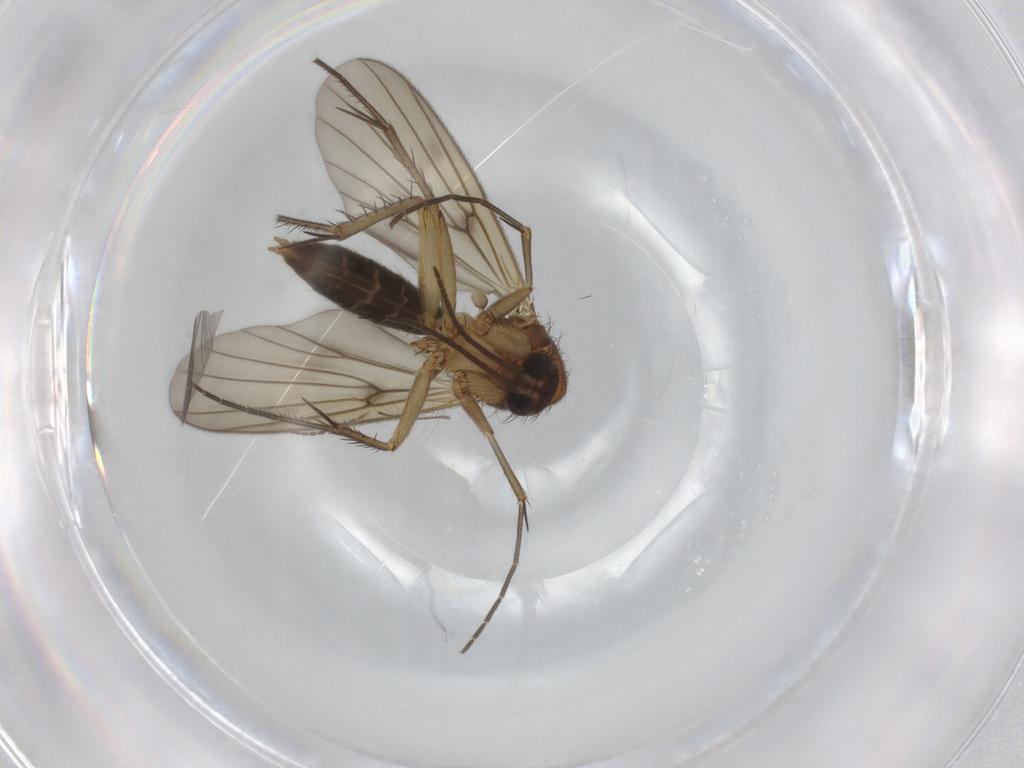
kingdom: Animalia
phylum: Arthropoda
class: Insecta
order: Diptera
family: Mycetophilidae
